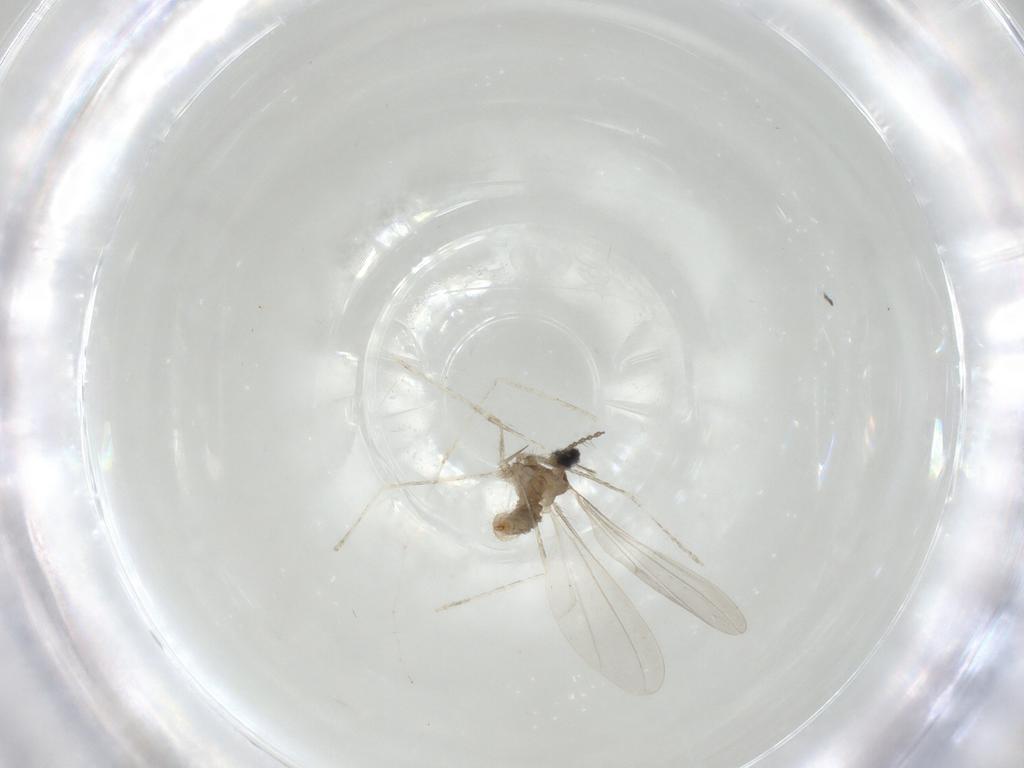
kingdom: Animalia
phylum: Arthropoda
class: Insecta
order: Diptera
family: Cecidomyiidae
